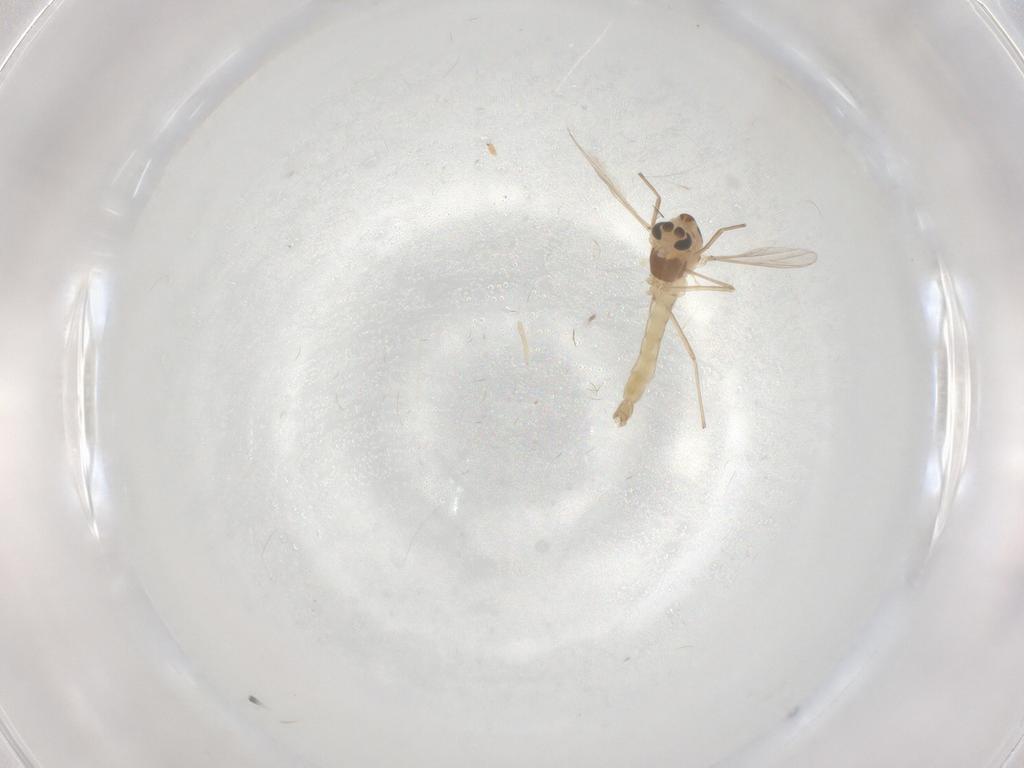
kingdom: Animalia
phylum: Arthropoda
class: Insecta
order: Diptera
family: Chironomidae
